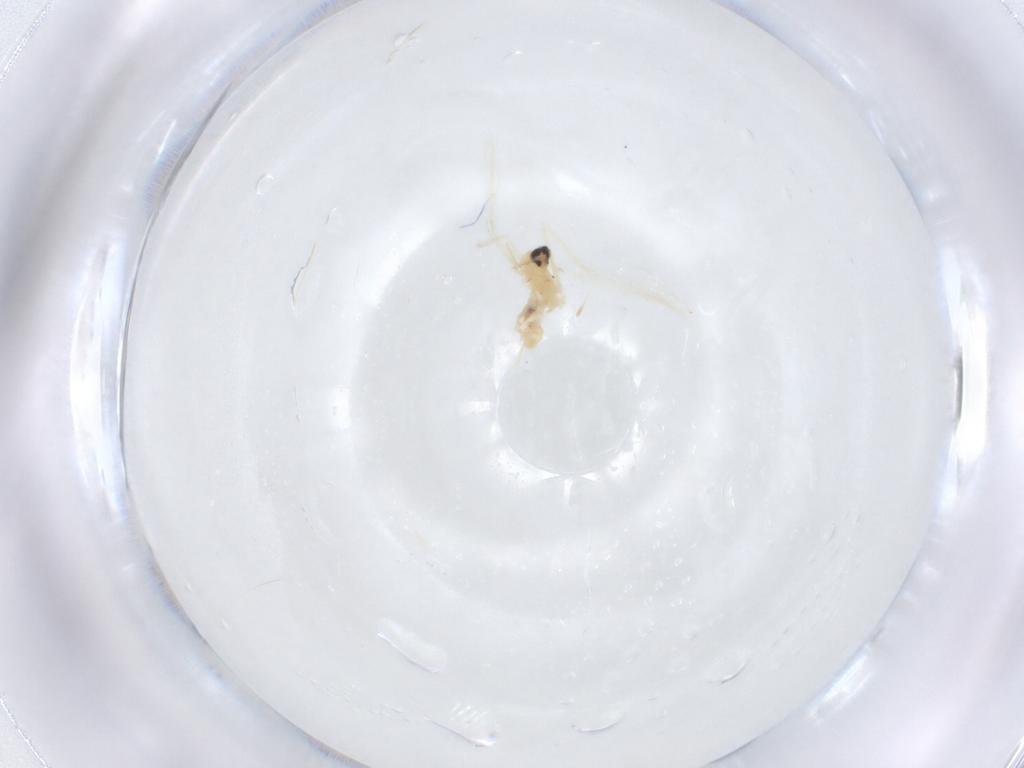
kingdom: Animalia
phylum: Arthropoda
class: Insecta
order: Diptera
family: Cecidomyiidae
